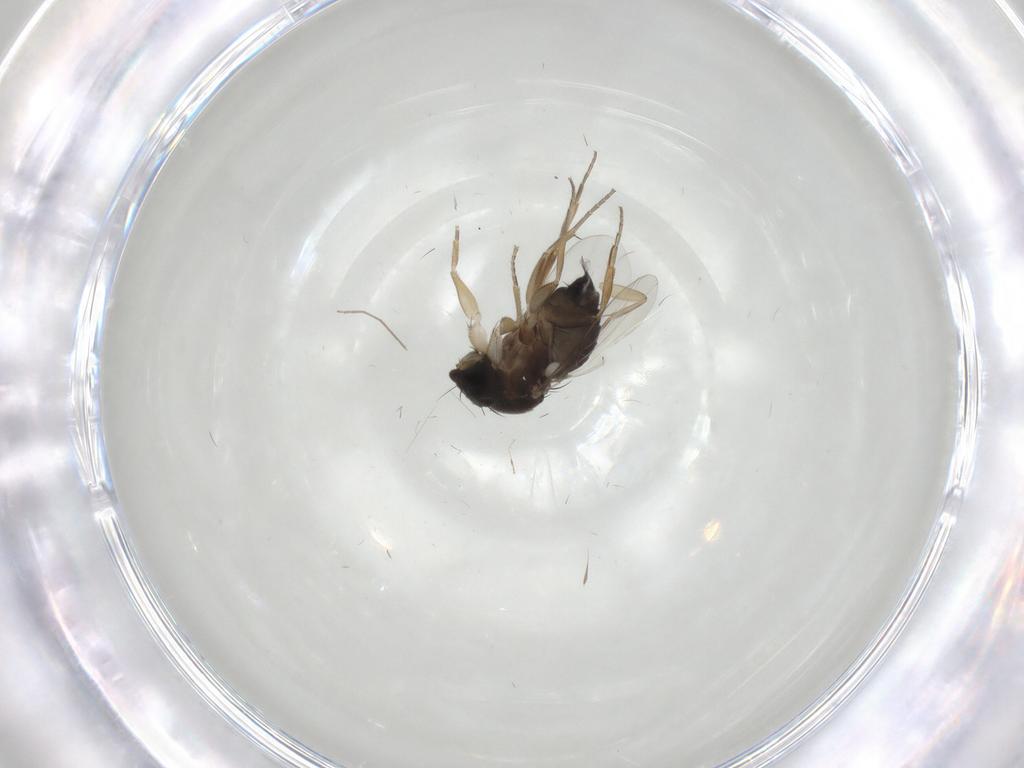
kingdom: Animalia
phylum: Arthropoda
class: Insecta
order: Diptera
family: Phoridae
